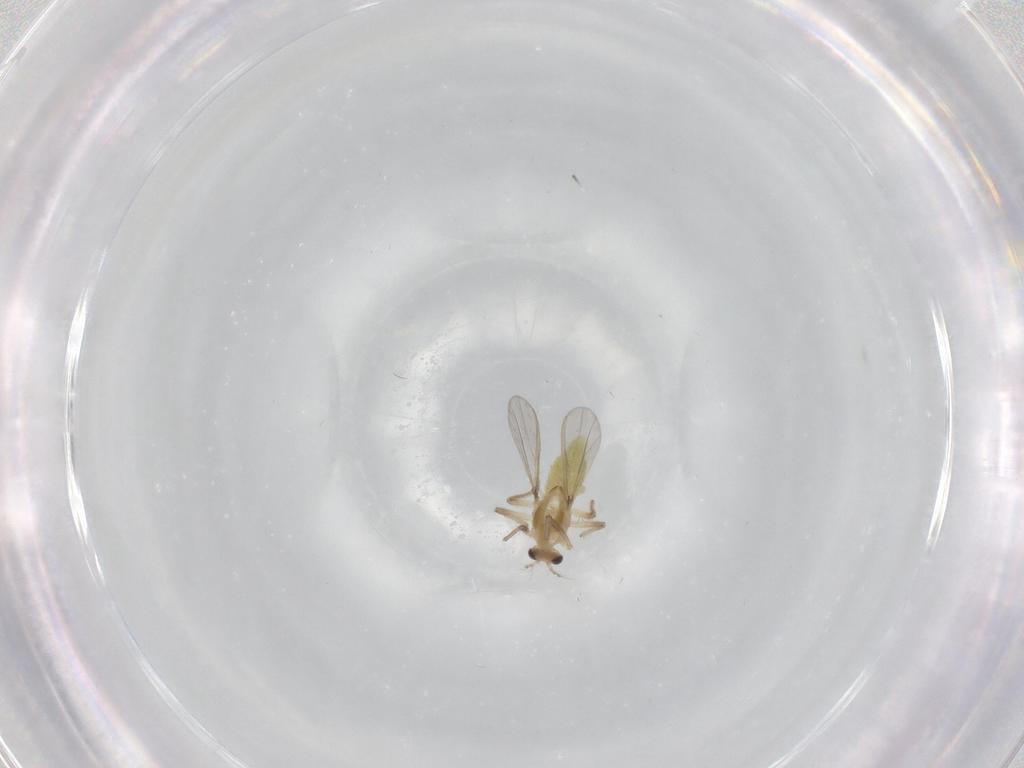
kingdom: Animalia
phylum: Arthropoda
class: Insecta
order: Diptera
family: Chironomidae
